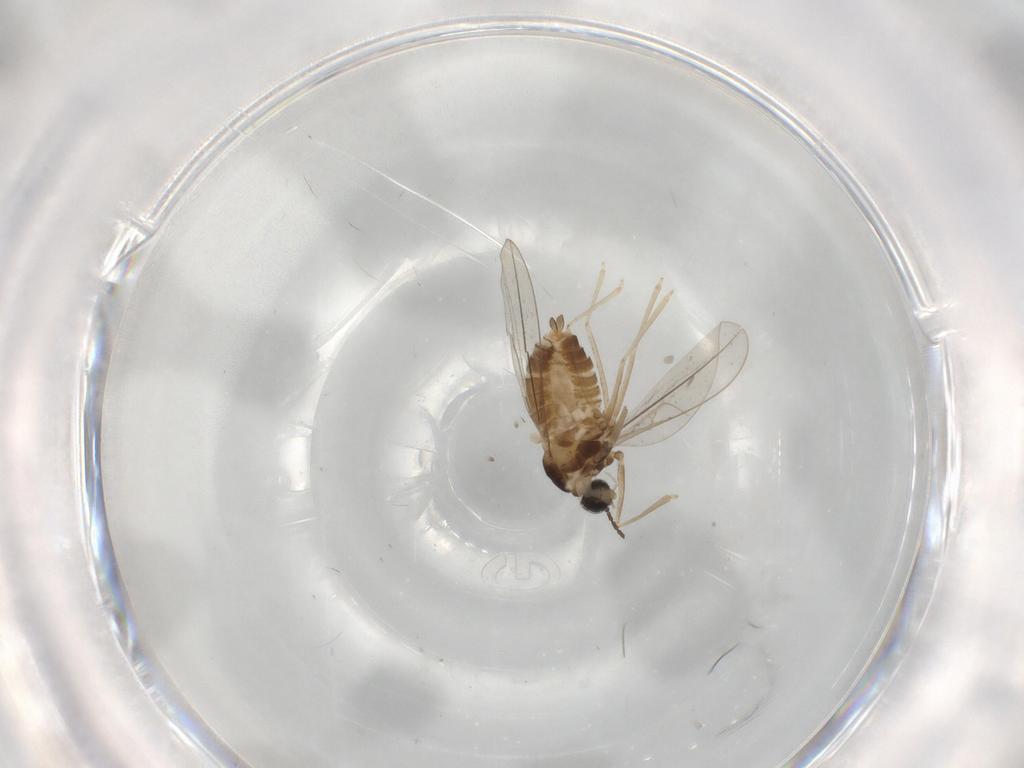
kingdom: Animalia
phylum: Arthropoda
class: Insecta
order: Diptera
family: Cecidomyiidae
